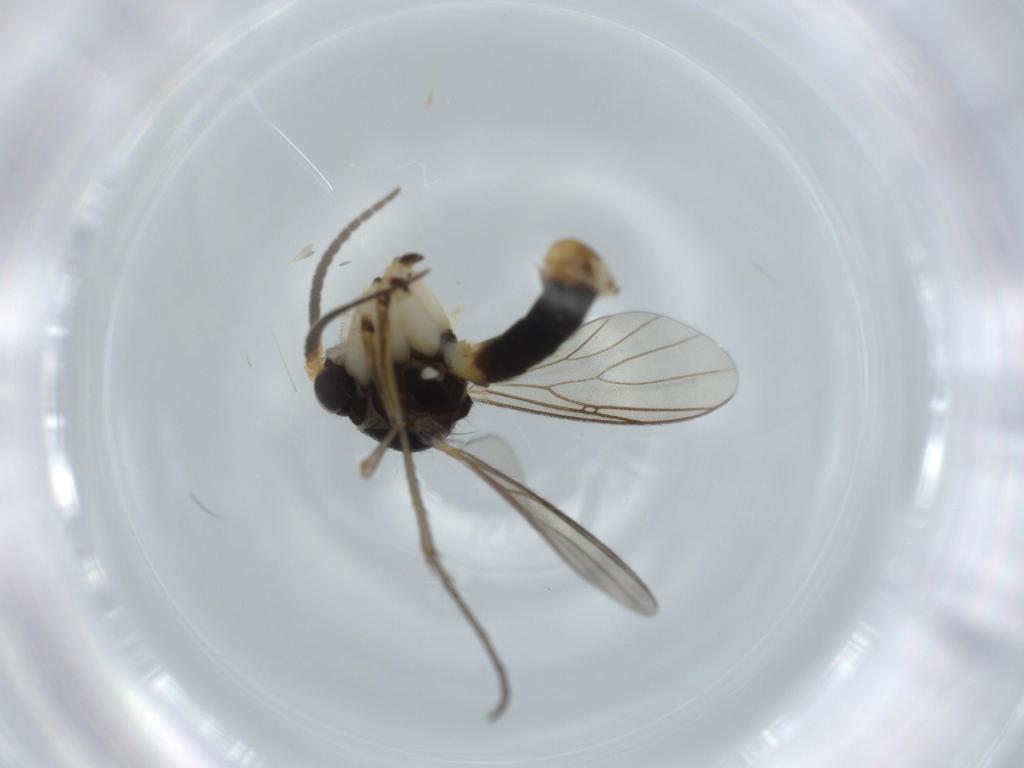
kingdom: Animalia
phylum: Arthropoda
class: Insecta
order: Diptera
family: Mycetophilidae
